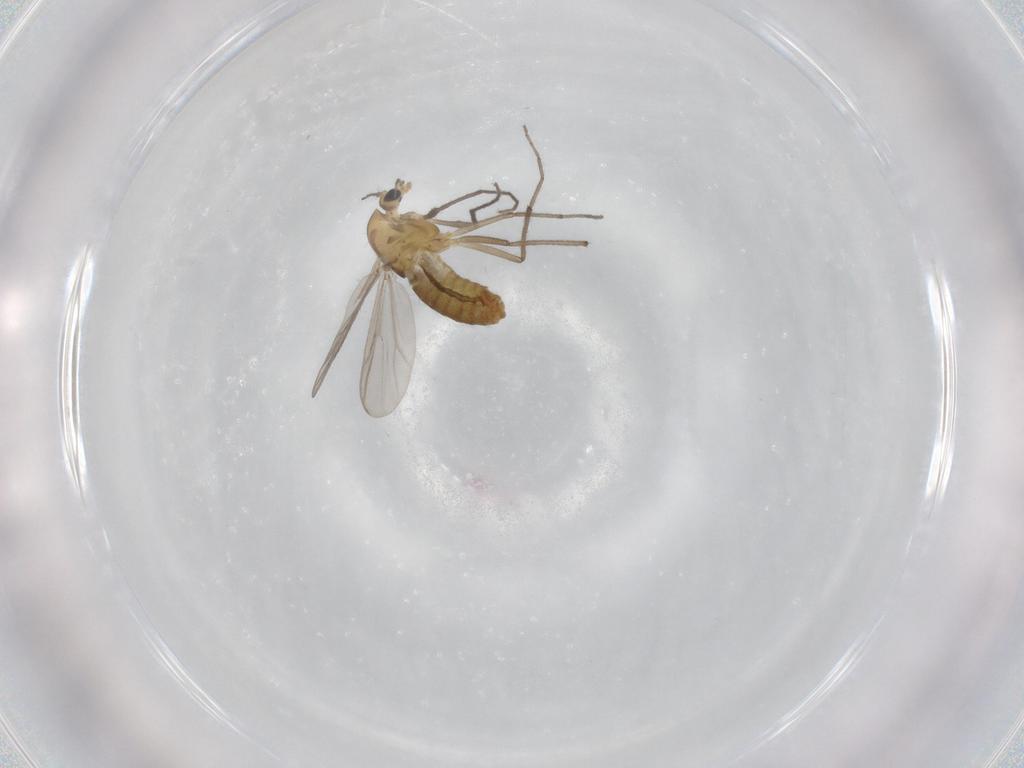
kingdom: Animalia
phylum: Arthropoda
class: Insecta
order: Diptera
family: Chironomidae
